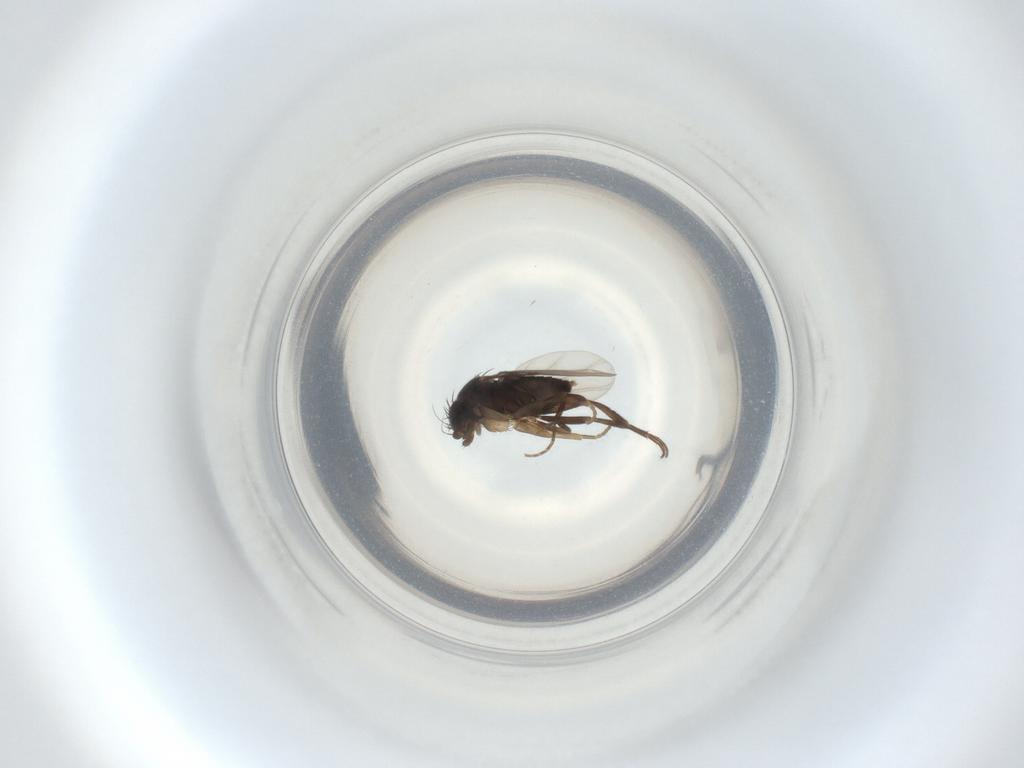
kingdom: Animalia
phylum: Arthropoda
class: Insecta
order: Diptera
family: Phoridae
